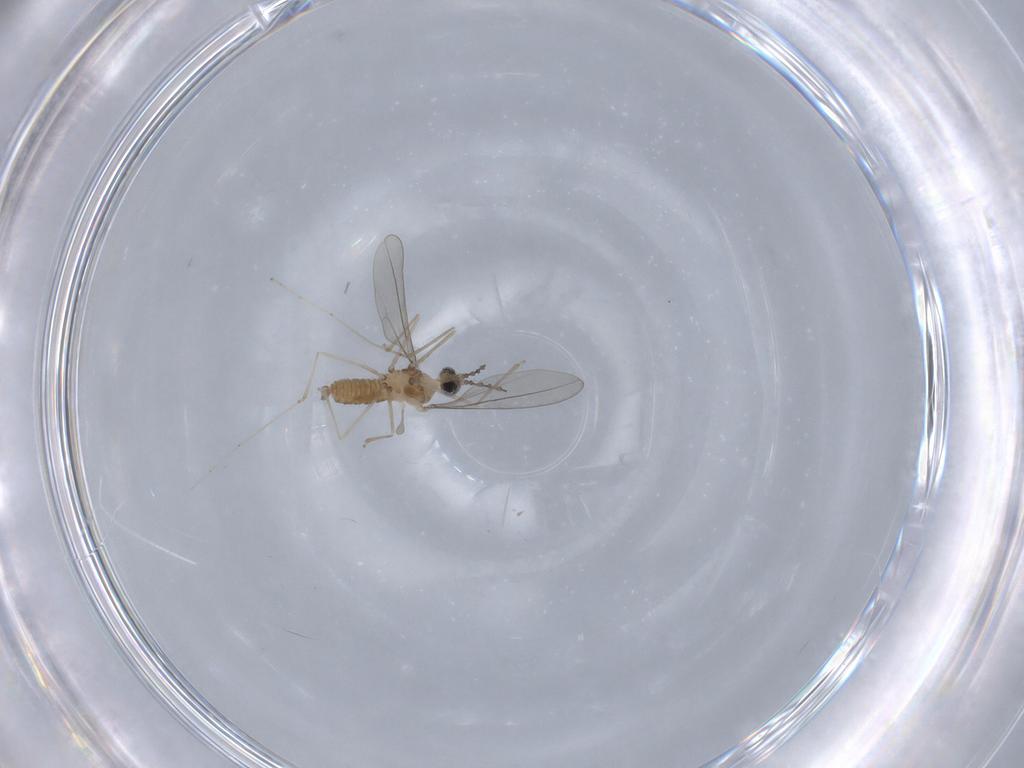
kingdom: Animalia
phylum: Arthropoda
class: Insecta
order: Diptera
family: Cecidomyiidae
